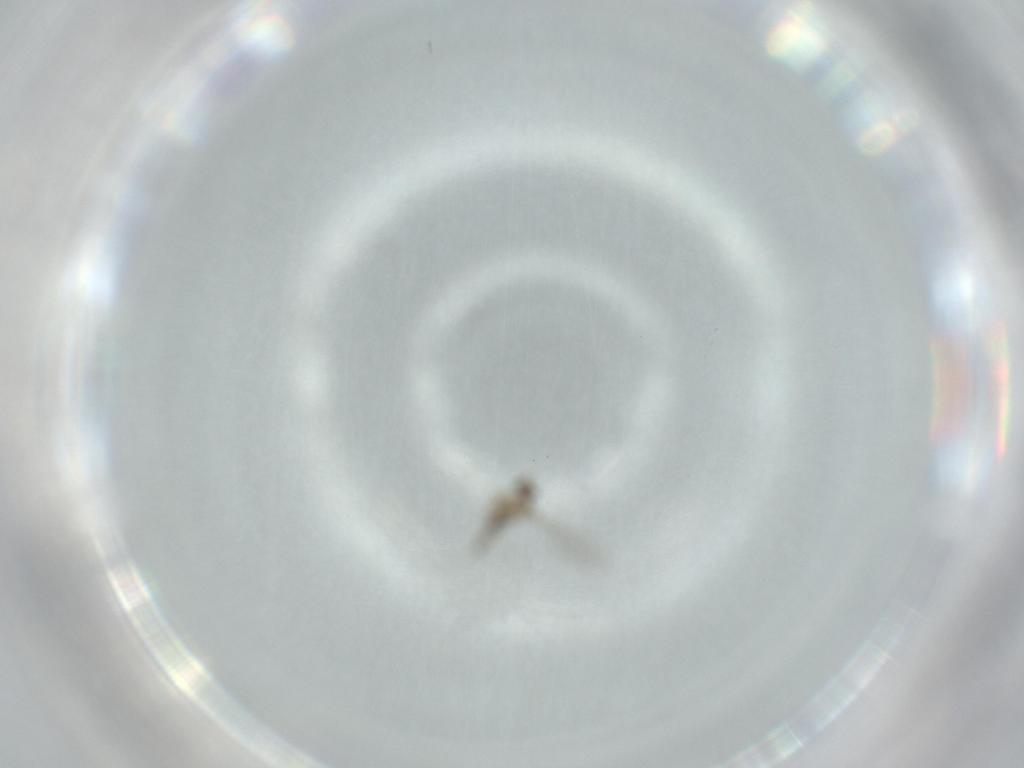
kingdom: Animalia
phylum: Arthropoda
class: Insecta
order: Diptera
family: Cecidomyiidae
